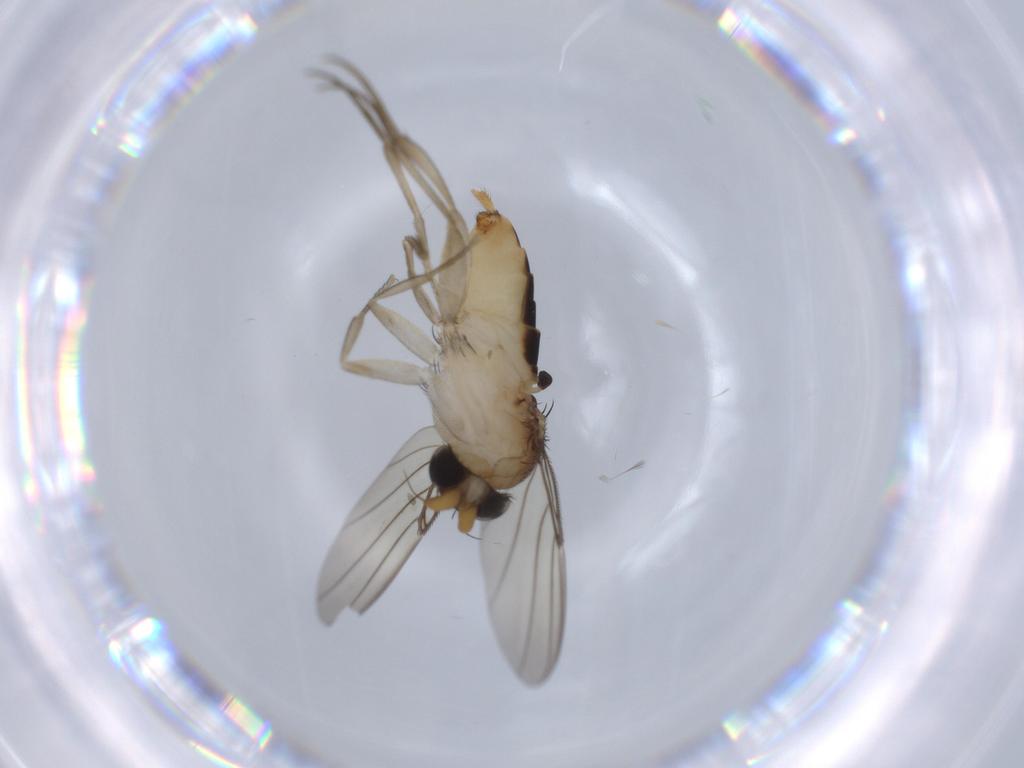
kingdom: Animalia
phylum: Arthropoda
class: Insecta
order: Diptera
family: Phoridae
